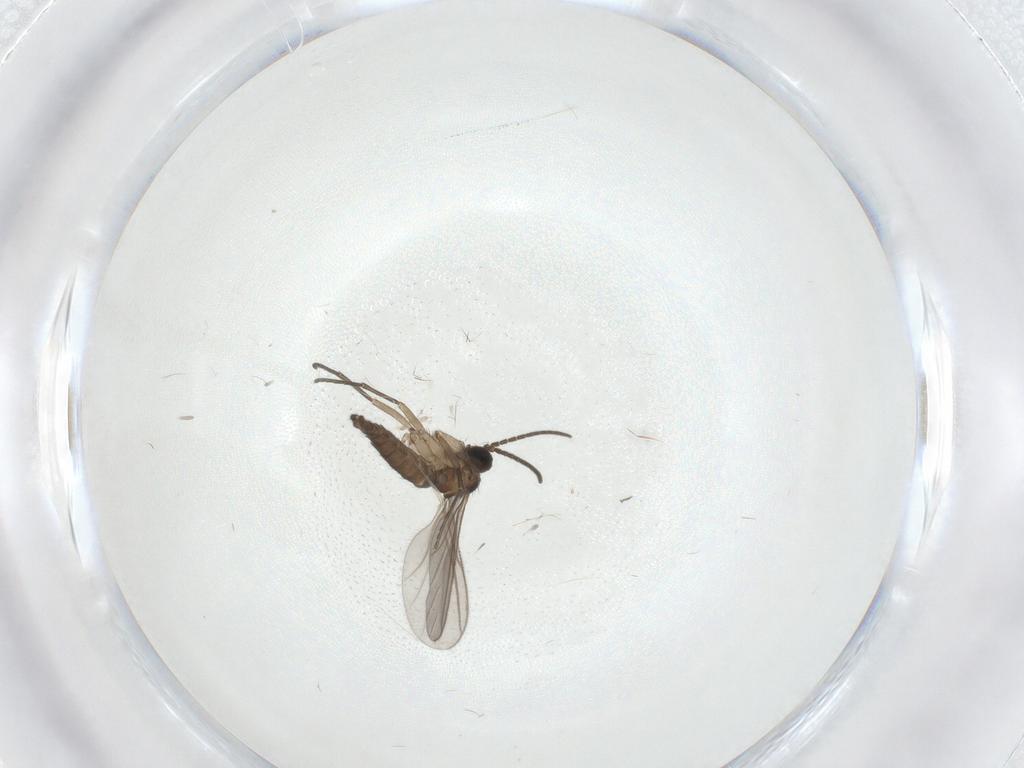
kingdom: Animalia
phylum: Arthropoda
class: Insecta
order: Diptera
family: Sciaridae
